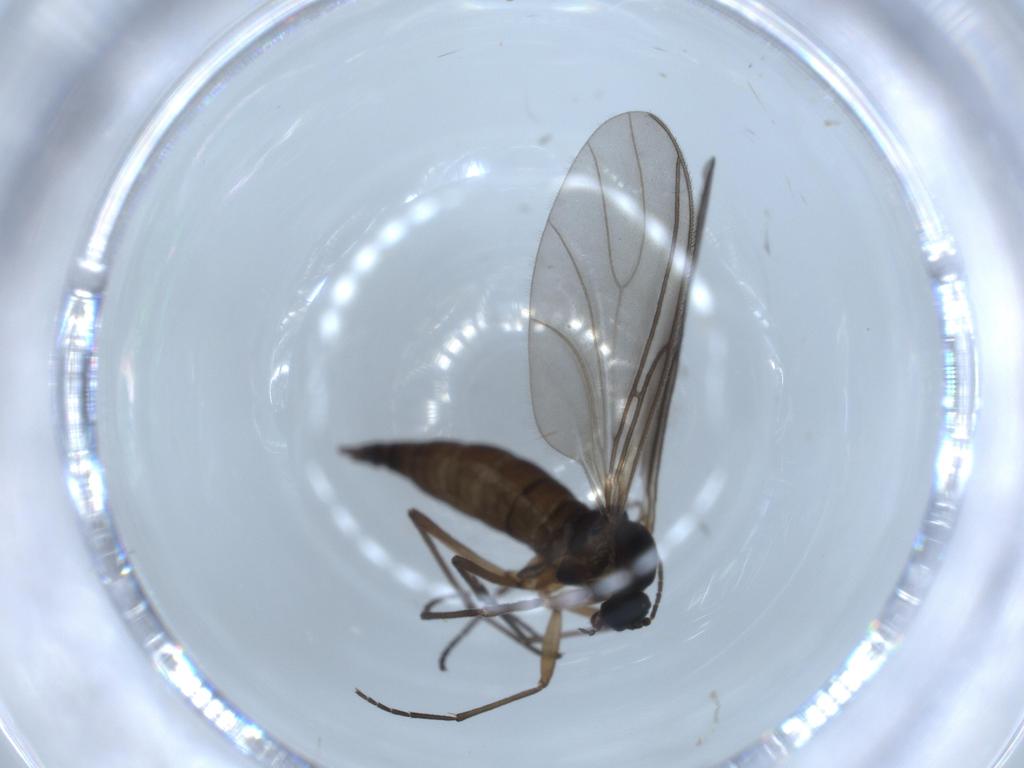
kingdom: Animalia
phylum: Arthropoda
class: Insecta
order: Diptera
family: Sciaridae
